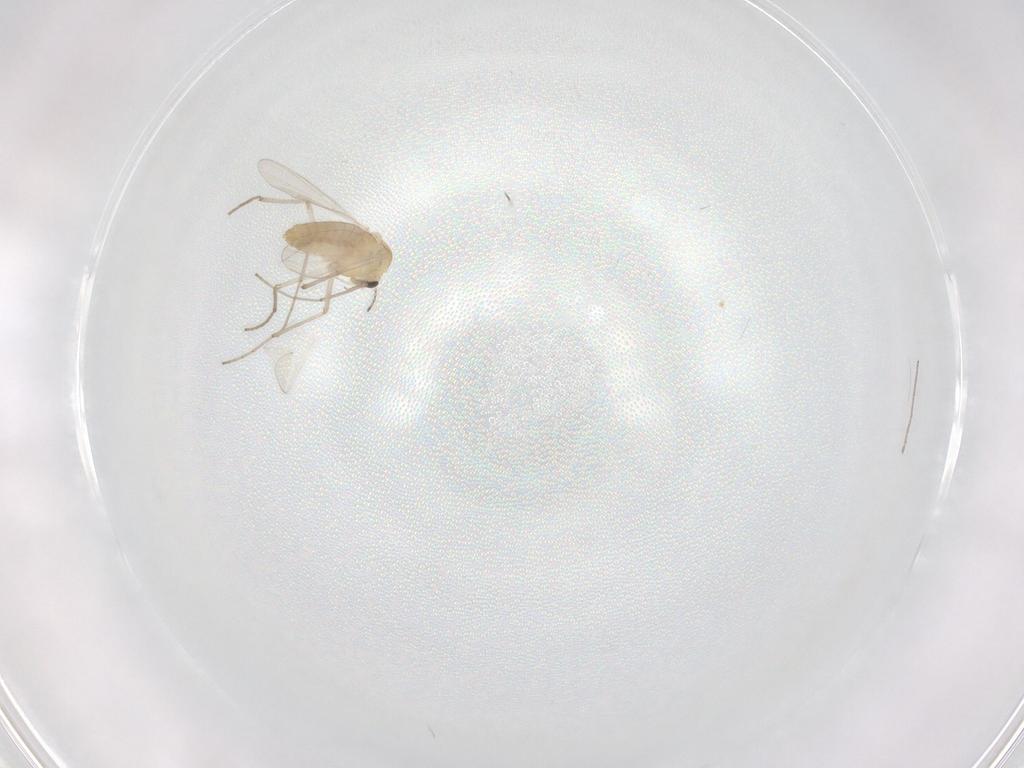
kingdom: Animalia
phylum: Arthropoda
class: Insecta
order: Diptera
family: Chironomidae
